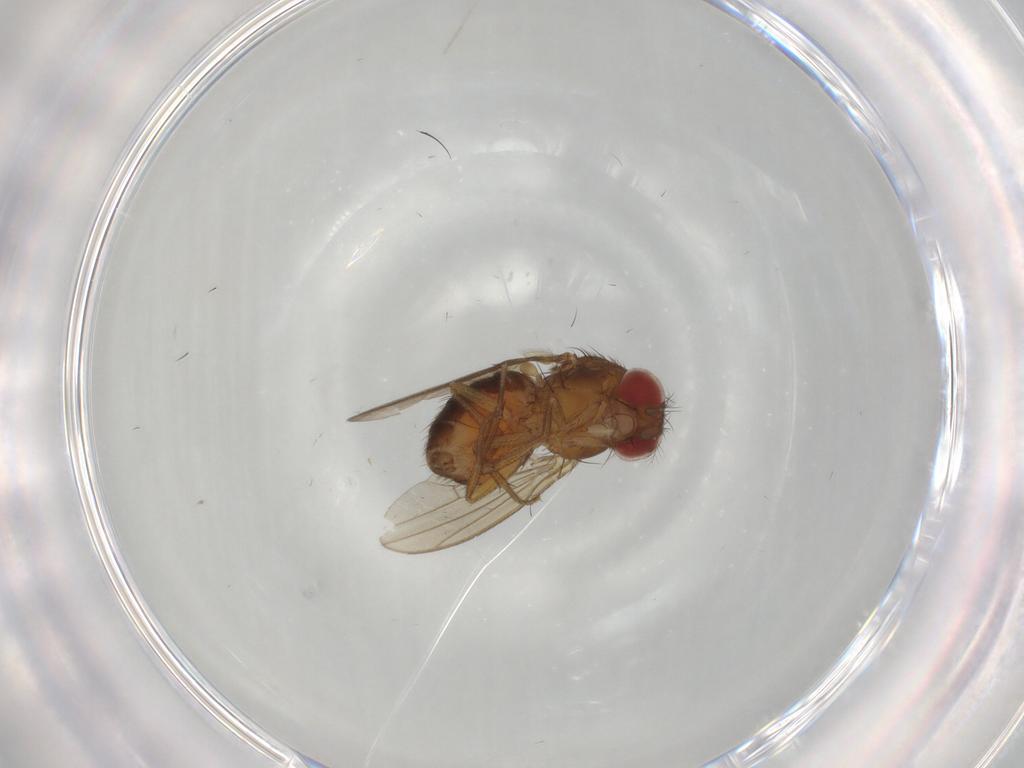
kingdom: Animalia
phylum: Arthropoda
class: Insecta
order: Diptera
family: Drosophilidae
